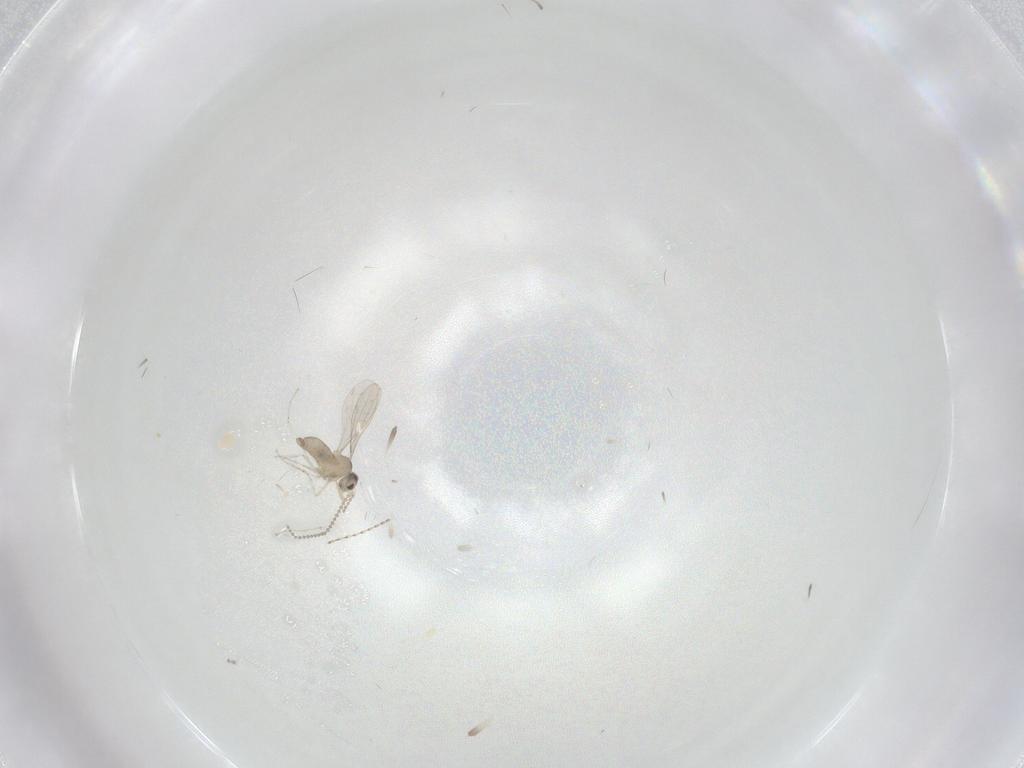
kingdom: Animalia
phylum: Arthropoda
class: Insecta
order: Diptera
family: Cecidomyiidae
